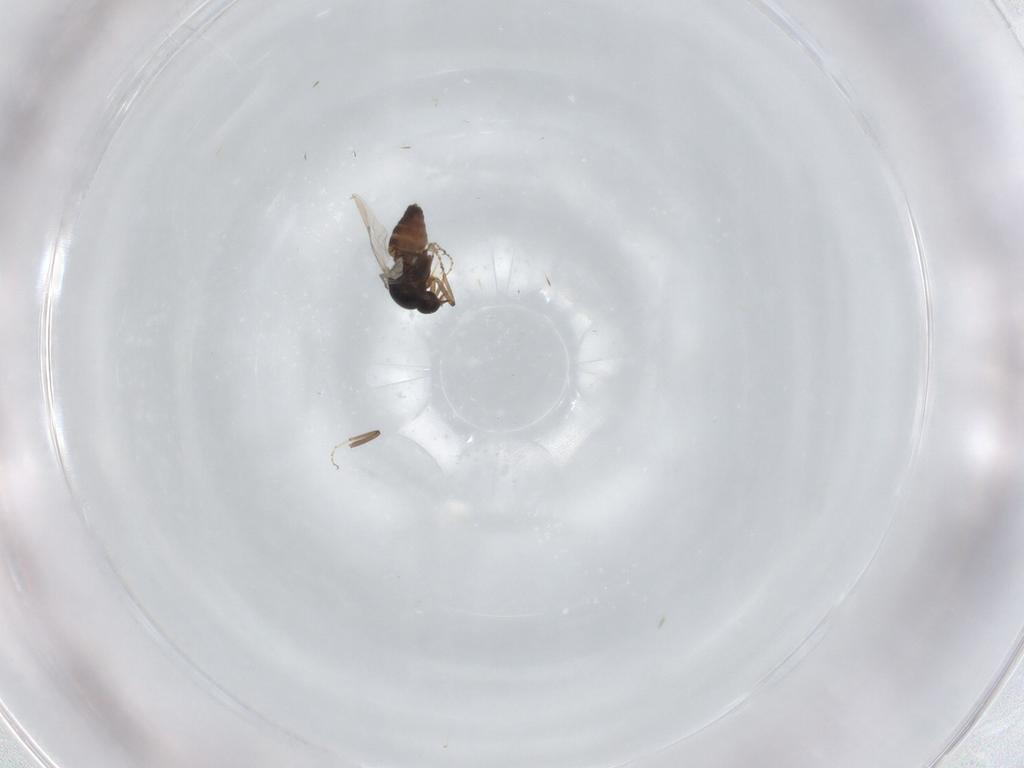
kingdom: Animalia
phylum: Arthropoda
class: Insecta
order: Diptera
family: Ceratopogonidae
